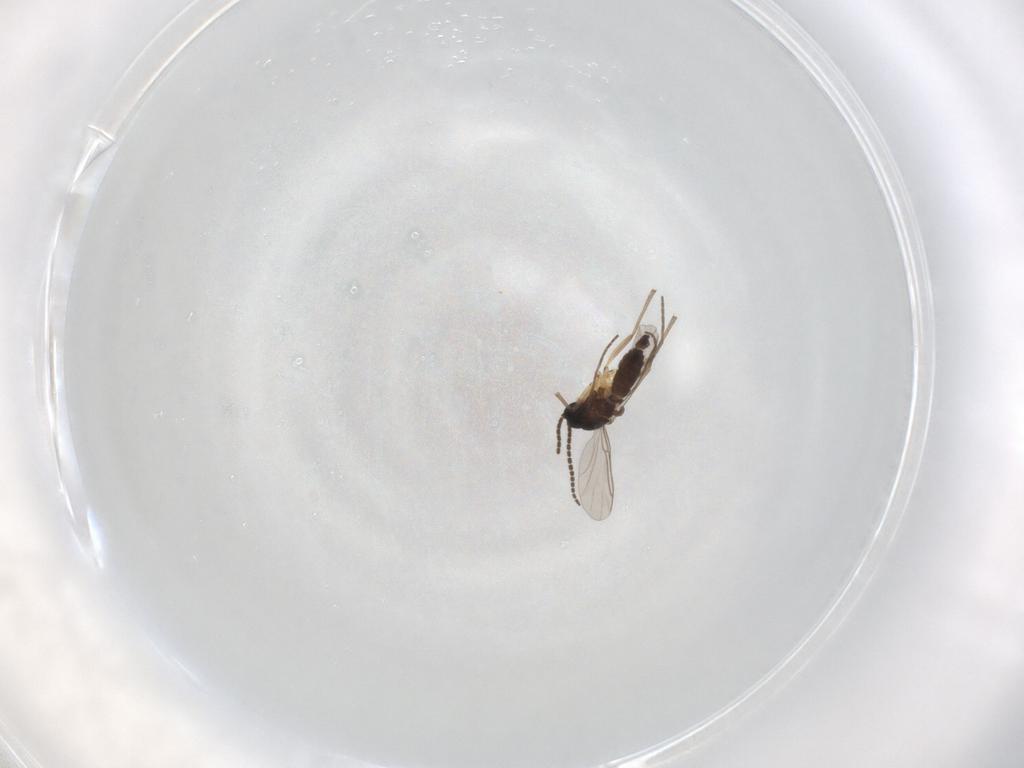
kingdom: Animalia
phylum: Arthropoda
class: Insecta
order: Diptera
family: Sciaridae
